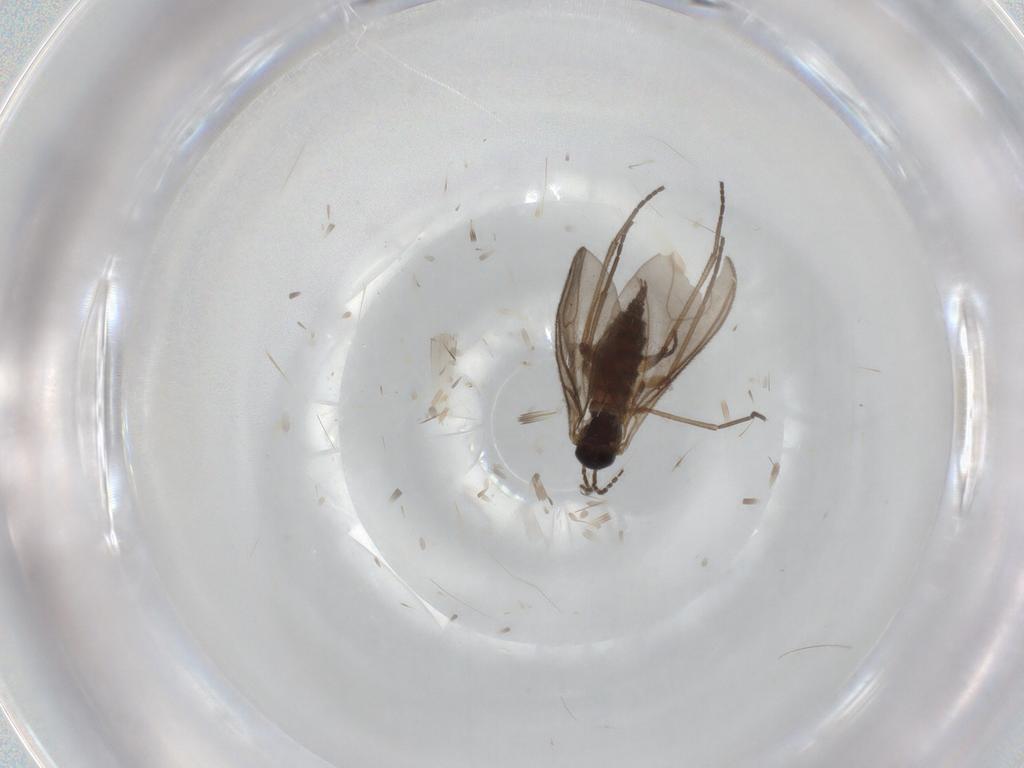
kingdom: Animalia
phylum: Arthropoda
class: Insecta
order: Diptera
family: Sciaridae
